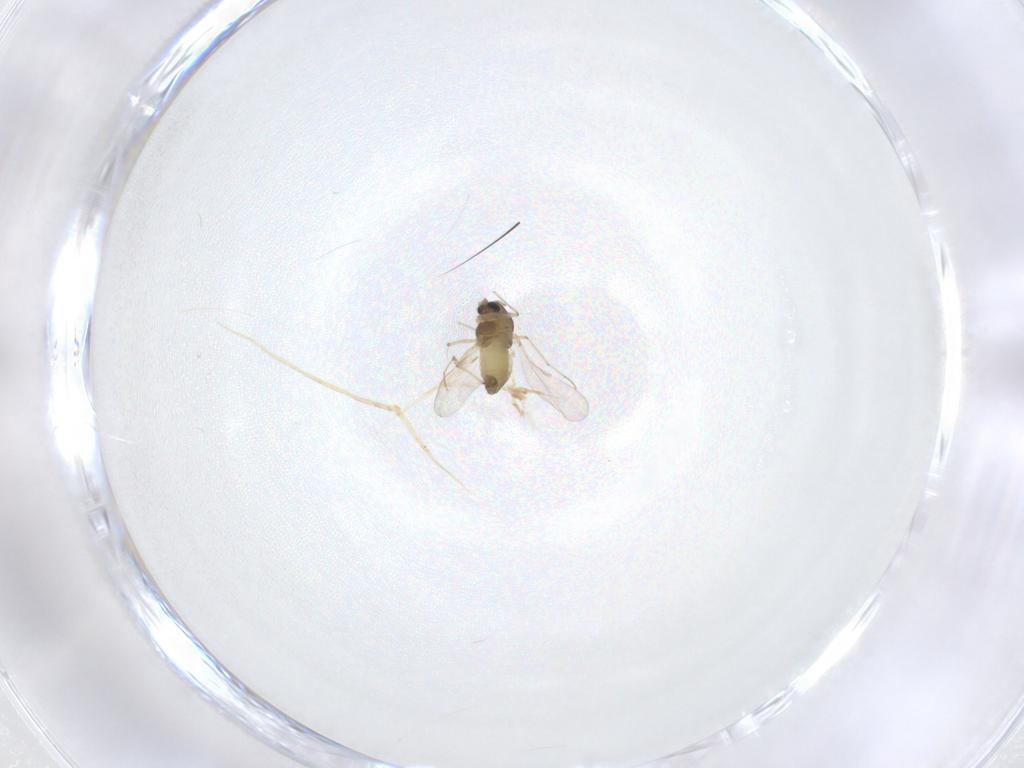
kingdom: Animalia
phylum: Arthropoda
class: Insecta
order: Diptera
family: Chironomidae
